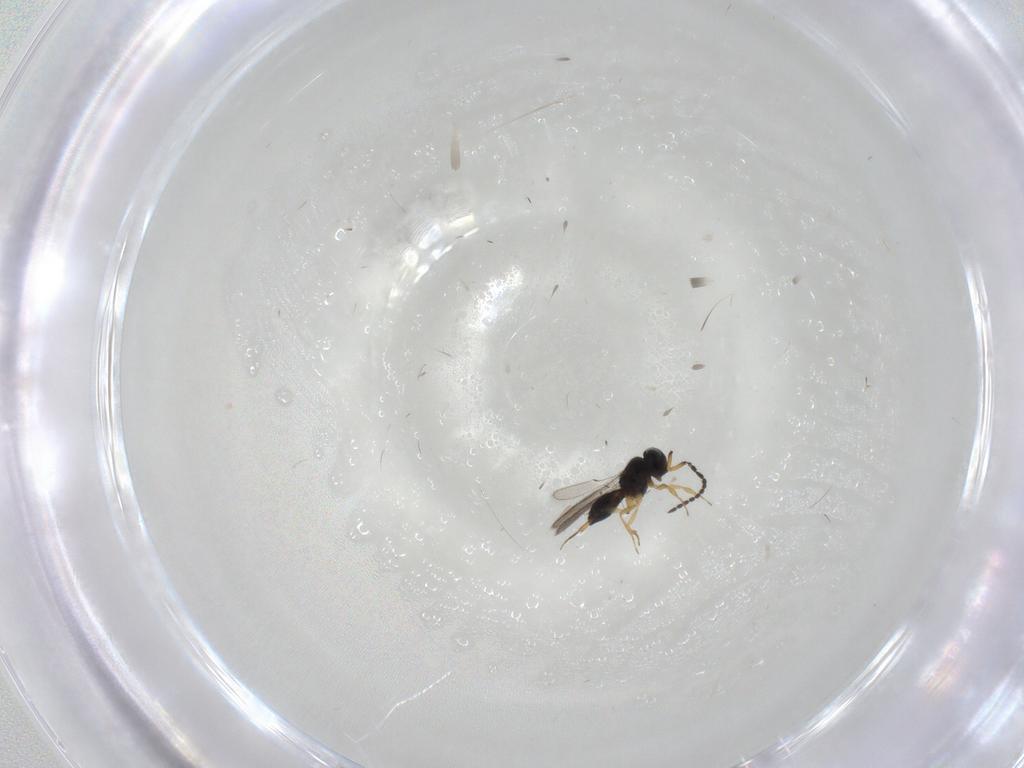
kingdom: Animalia
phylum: Arthropoda
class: Insecta
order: Hymenoptera
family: Scelionidae
